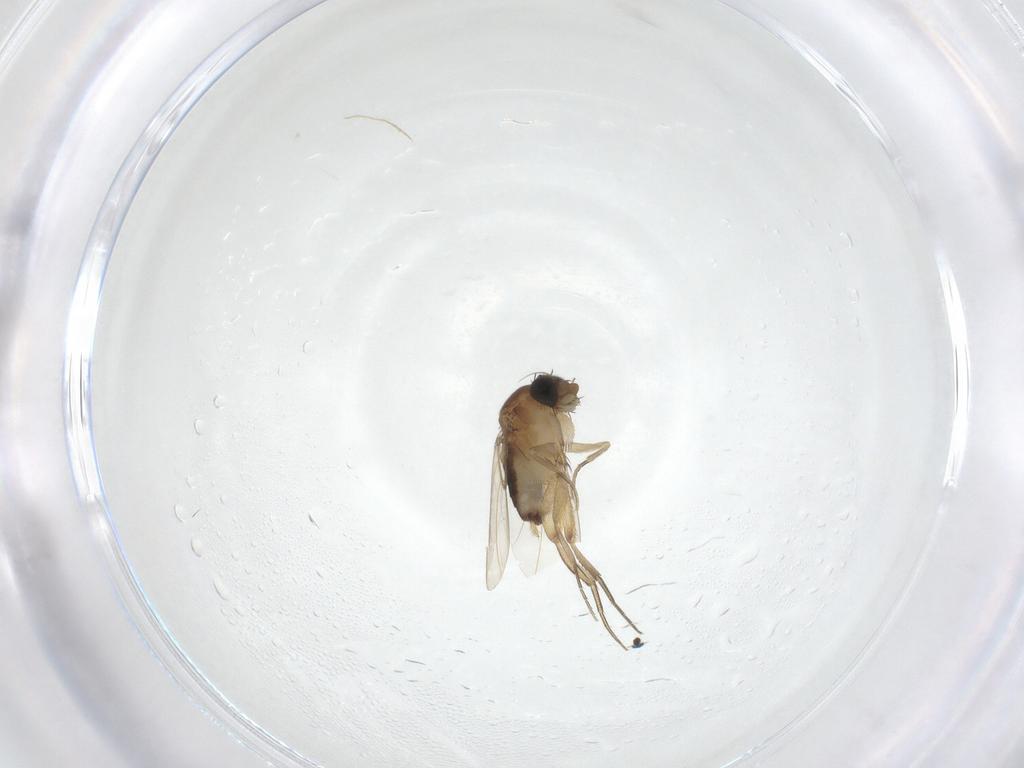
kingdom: Animalia
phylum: Arthropoda
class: Insecta
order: Diptera
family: Phoridae
